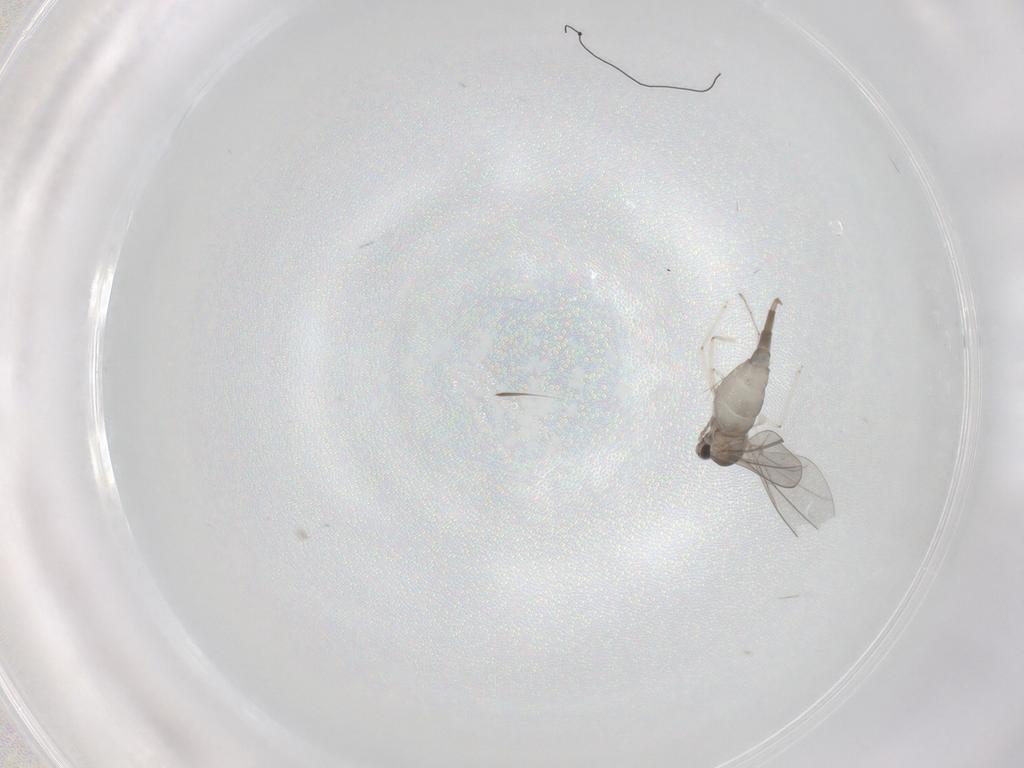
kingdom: Animalia
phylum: Arthropoda
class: Insecta
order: Diptera
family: Cecidomyiidae
